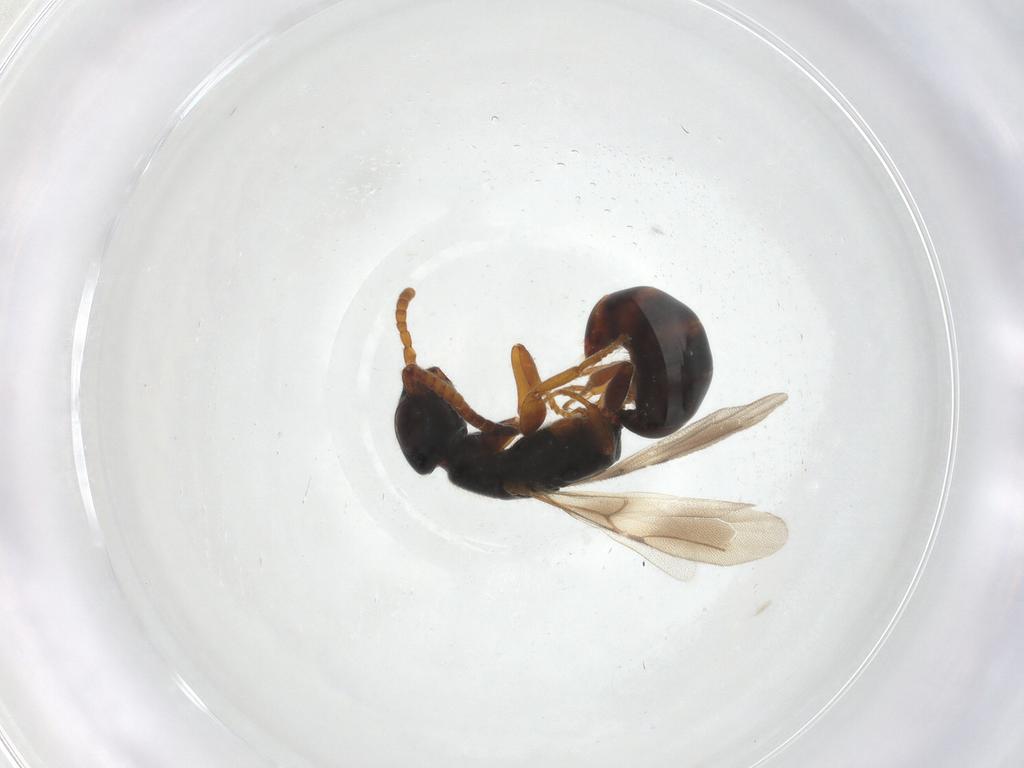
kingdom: Animalia
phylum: Arthropoda
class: Insecta
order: Hymenoptera
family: Bethylidae
